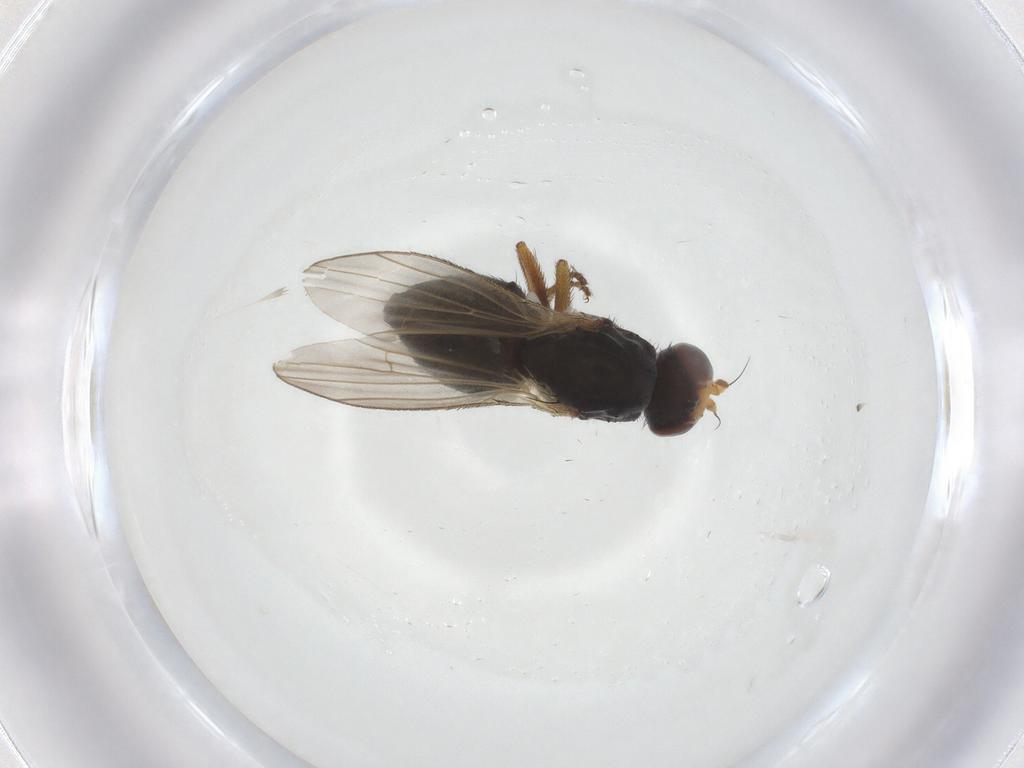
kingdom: Animalia
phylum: Arthropoda
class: Insecta
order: Diptera
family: Heleomyzidae
